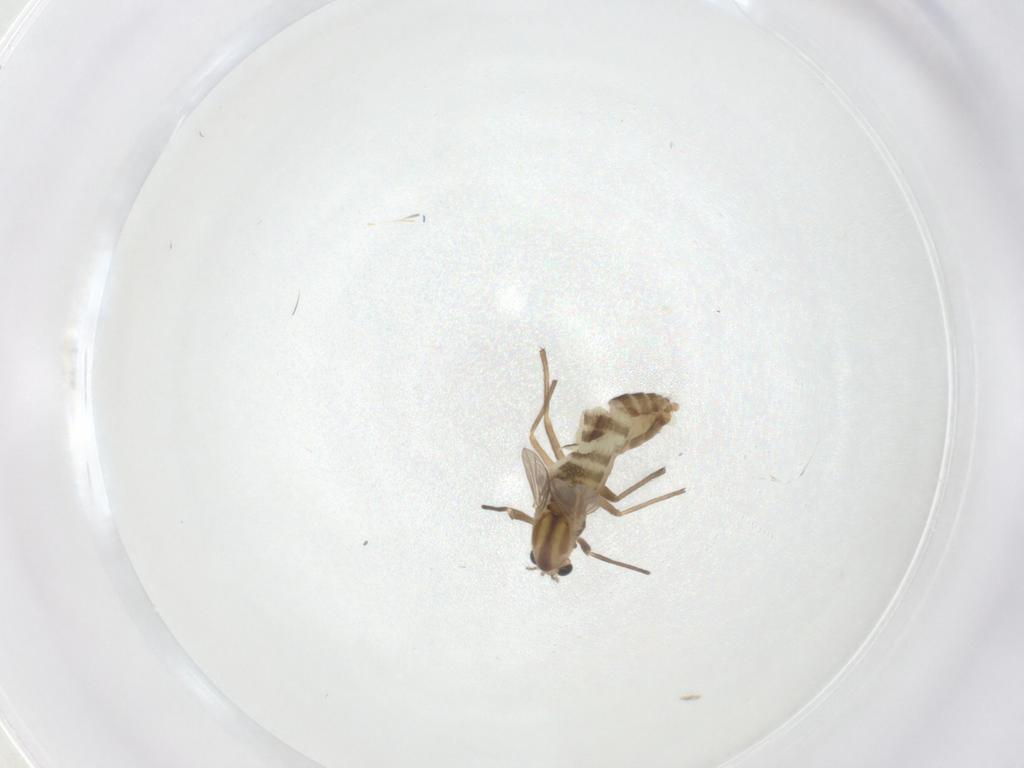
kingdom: Animalia
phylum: Arthropoda
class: Insecta
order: Diptera
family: Chironomidae
